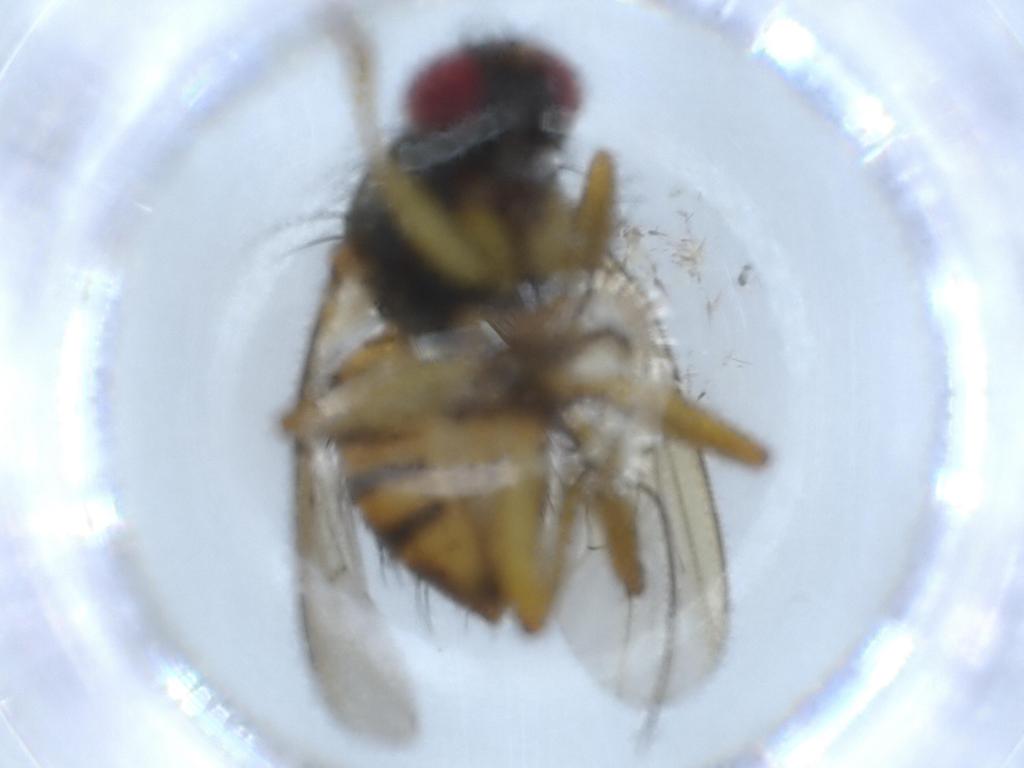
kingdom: Animalia
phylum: Arthropoda
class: Insecta
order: Diptera
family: Muscidae
